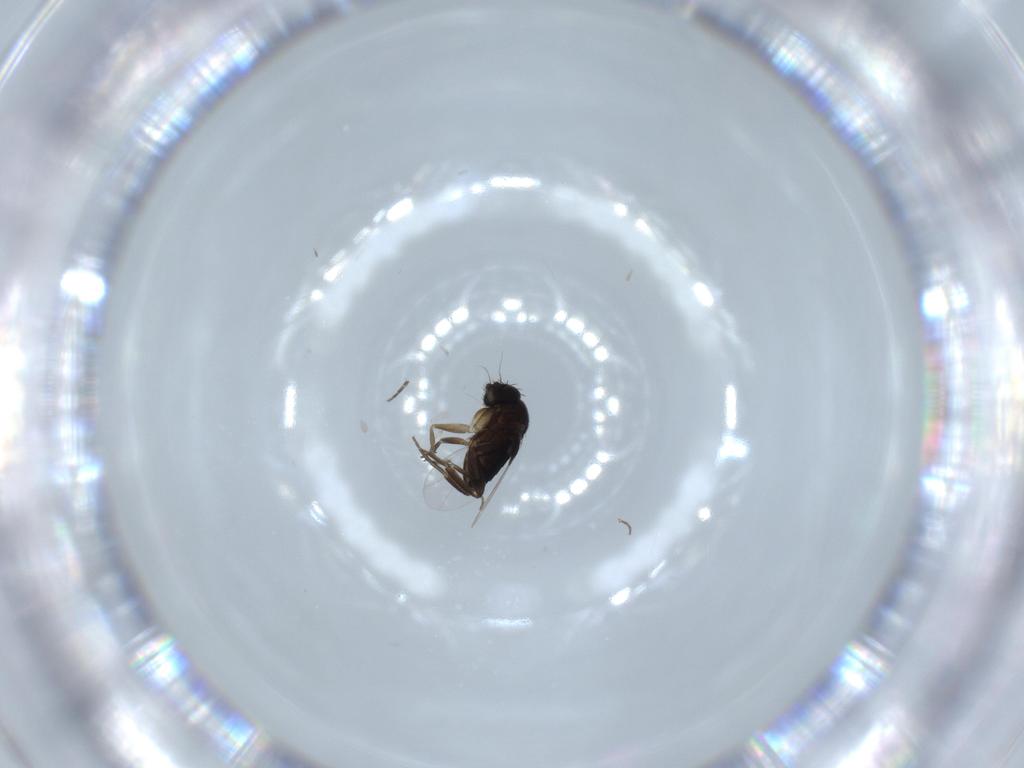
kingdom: Animalia
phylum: Arthropoda
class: Insecta
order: Diptera
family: Phoridae
